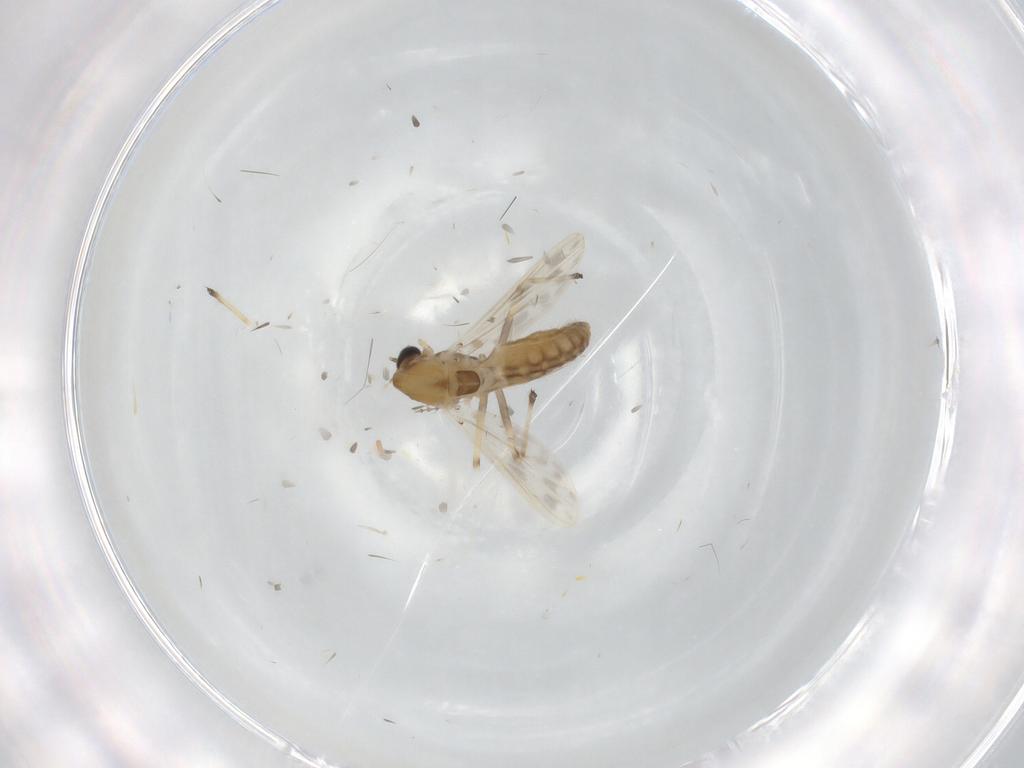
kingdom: Animalia
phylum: Arthropoda
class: Insecta
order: Diptera
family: Chironomidae
